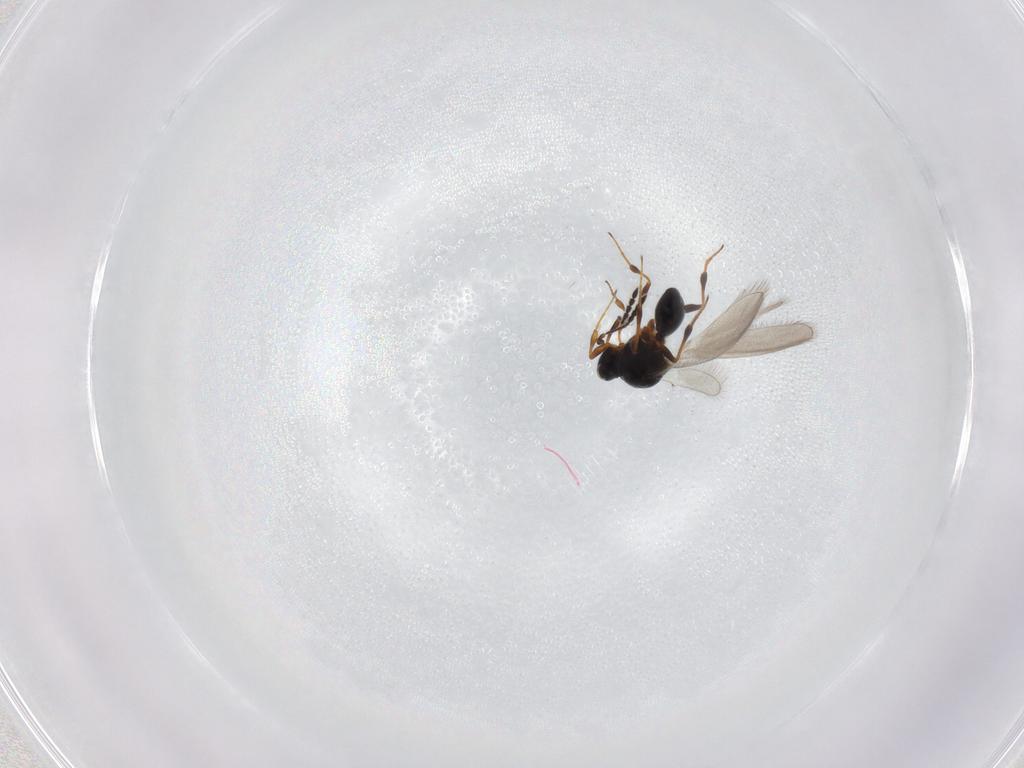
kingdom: Animalia
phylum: Arthropoda
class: Insecta
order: Hymenoptera
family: Platygastridae
